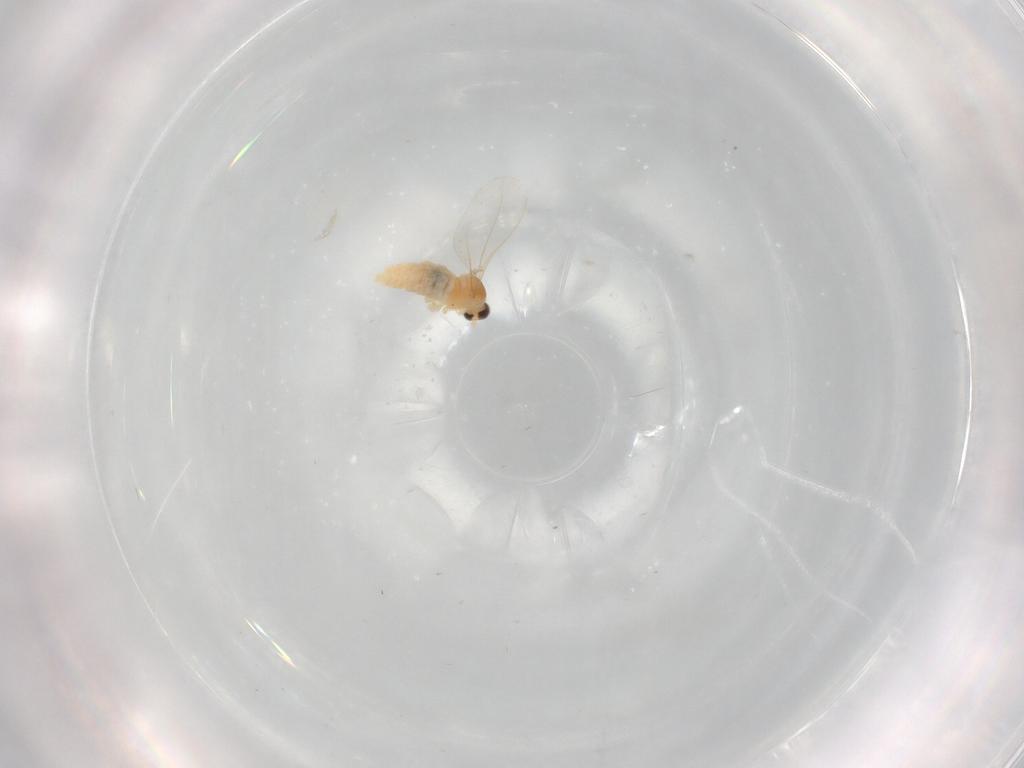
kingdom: Animalia
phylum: Arthropoda
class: Insecta
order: Diptera
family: Cecidomyiidae
